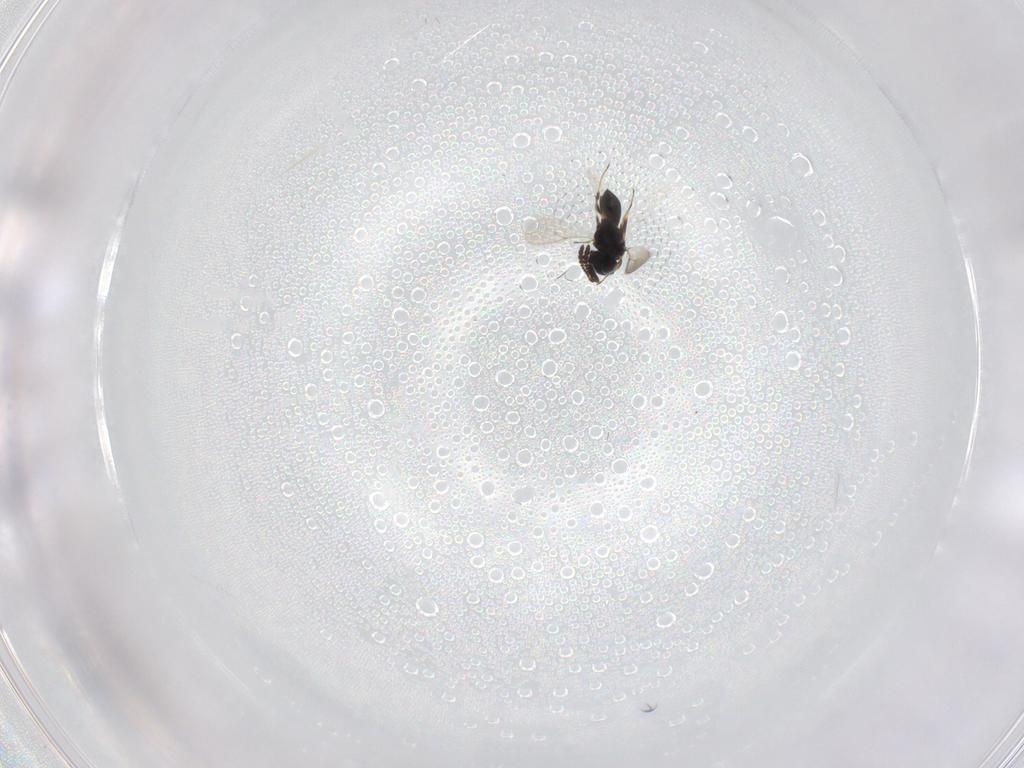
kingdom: Animalia
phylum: Arthropoda
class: Insecta
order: Hymenoptera
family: Scelionidae
